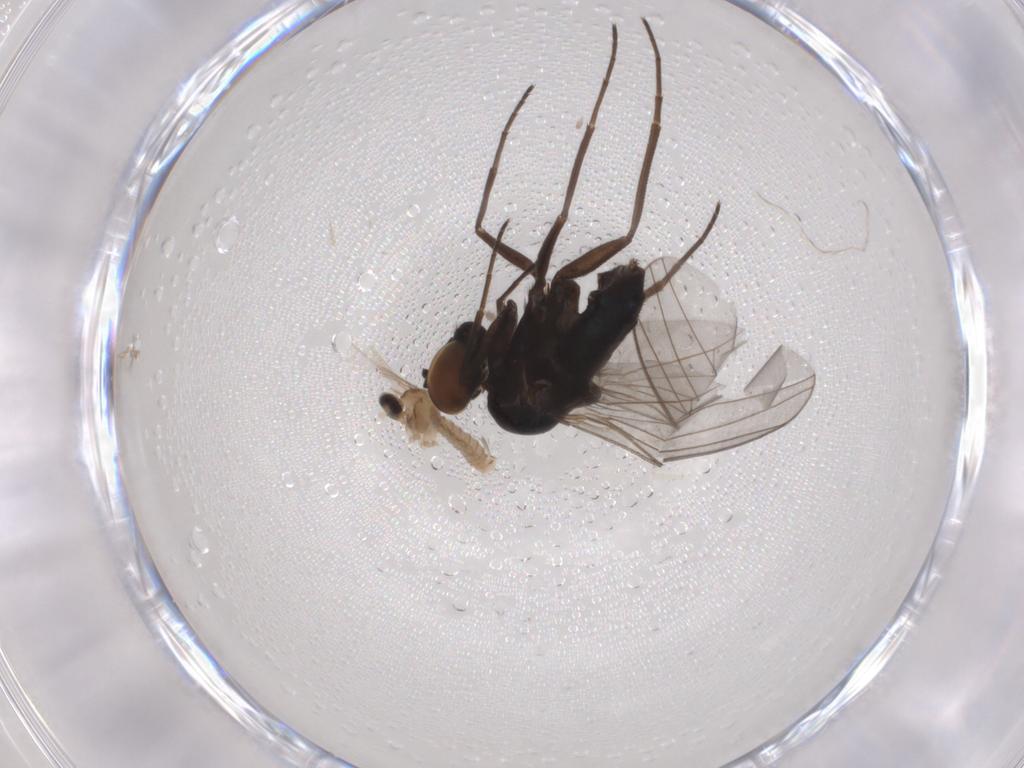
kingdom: Animalia
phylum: Arthropoda
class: Insecta
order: Diptera
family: Dolichopodidae
